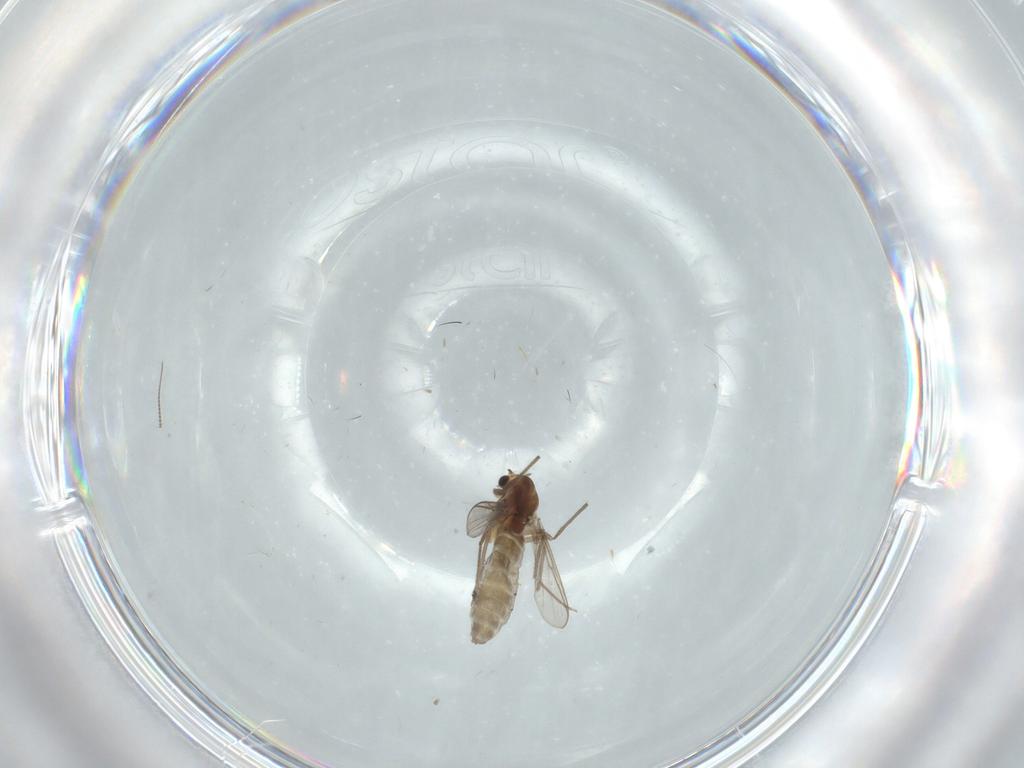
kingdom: Animalia
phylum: Arthropoda
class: Insecta
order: Diptera
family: Chironomidae
